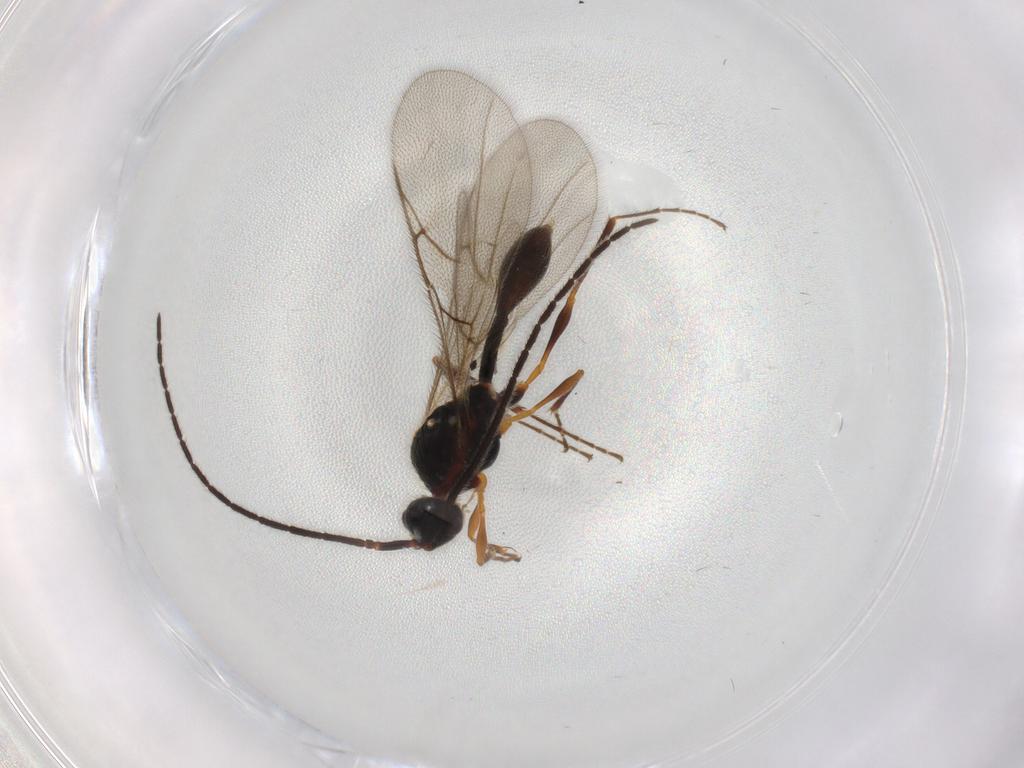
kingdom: Animalia
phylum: Arthropoda
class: Insecta
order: Hymenoptera
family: Diapriidae
